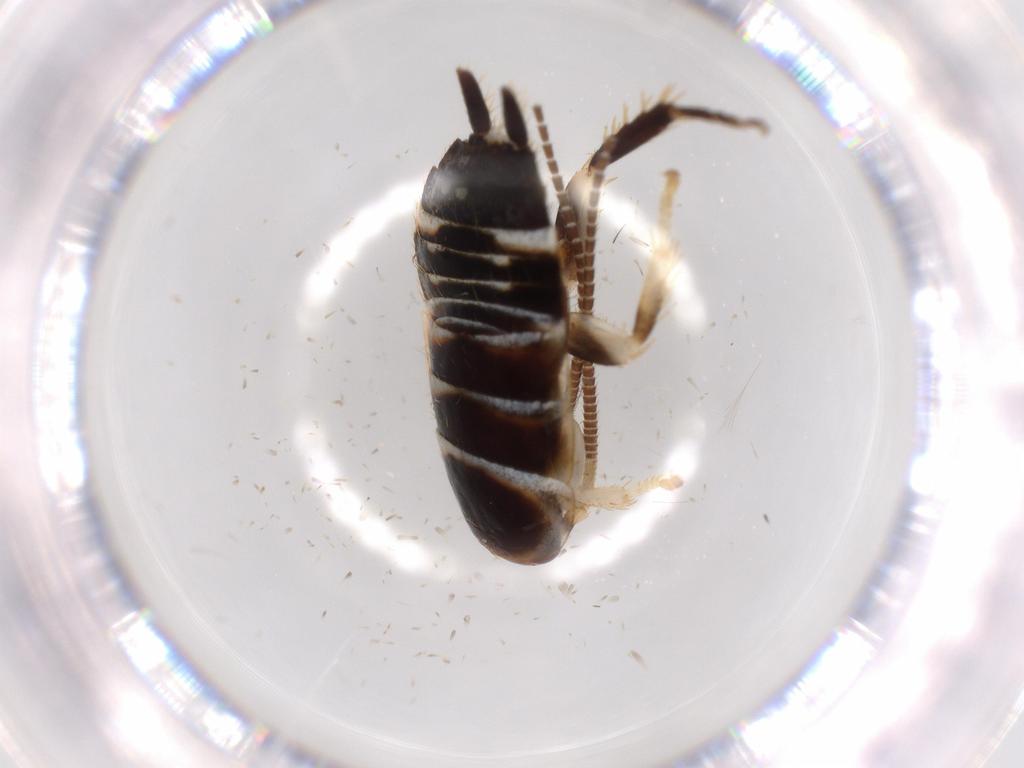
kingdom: Animalia
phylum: Arthropoda
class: Insecta
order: Blattodea
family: Ectobiidae
